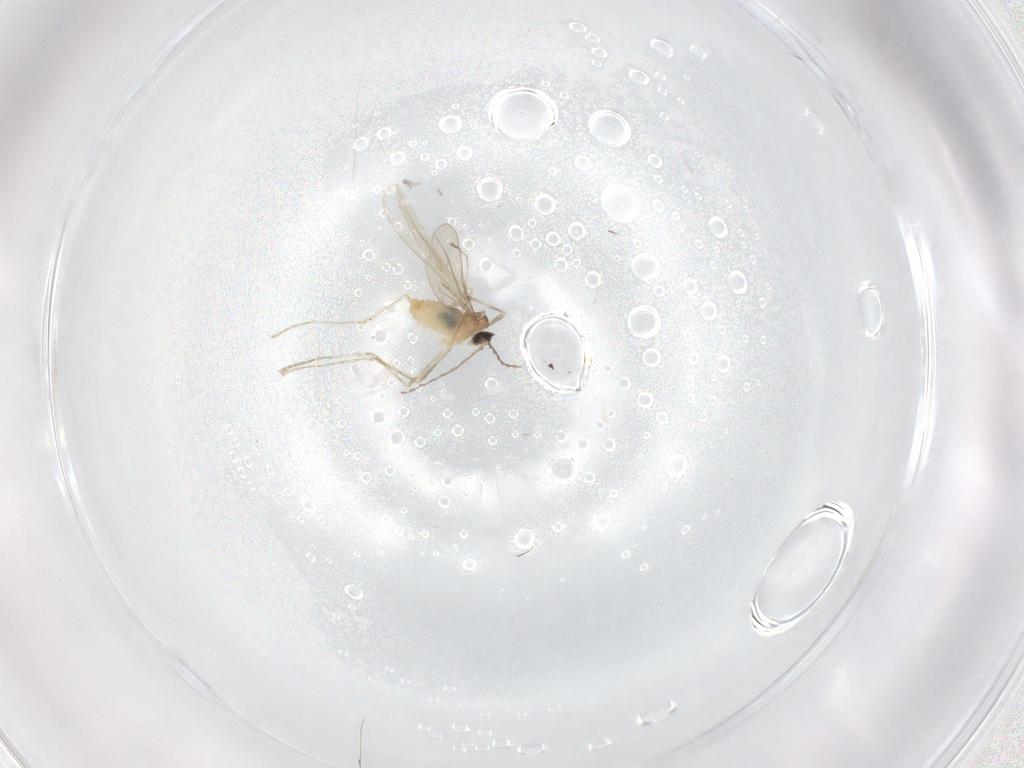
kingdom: Animalia
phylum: Arthropoda
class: Insecta
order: Diptera
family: Cecidomyiidae
